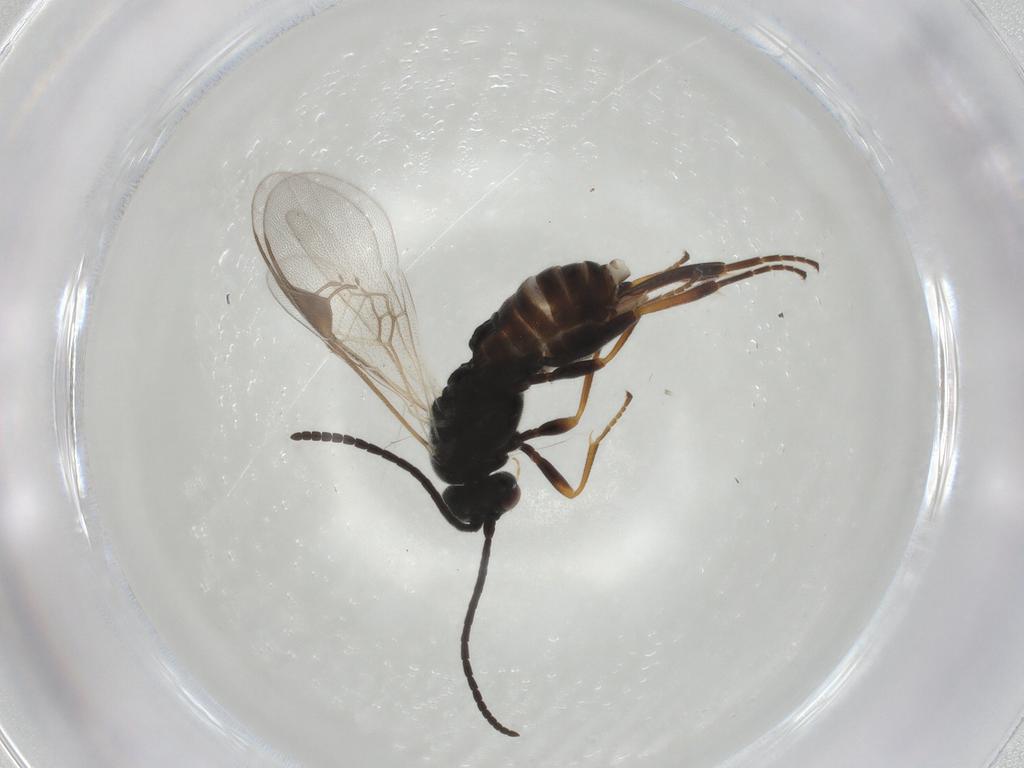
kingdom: Animalia
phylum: Arthropoda
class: Insecta
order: Hymenoptera
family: Braconidae
